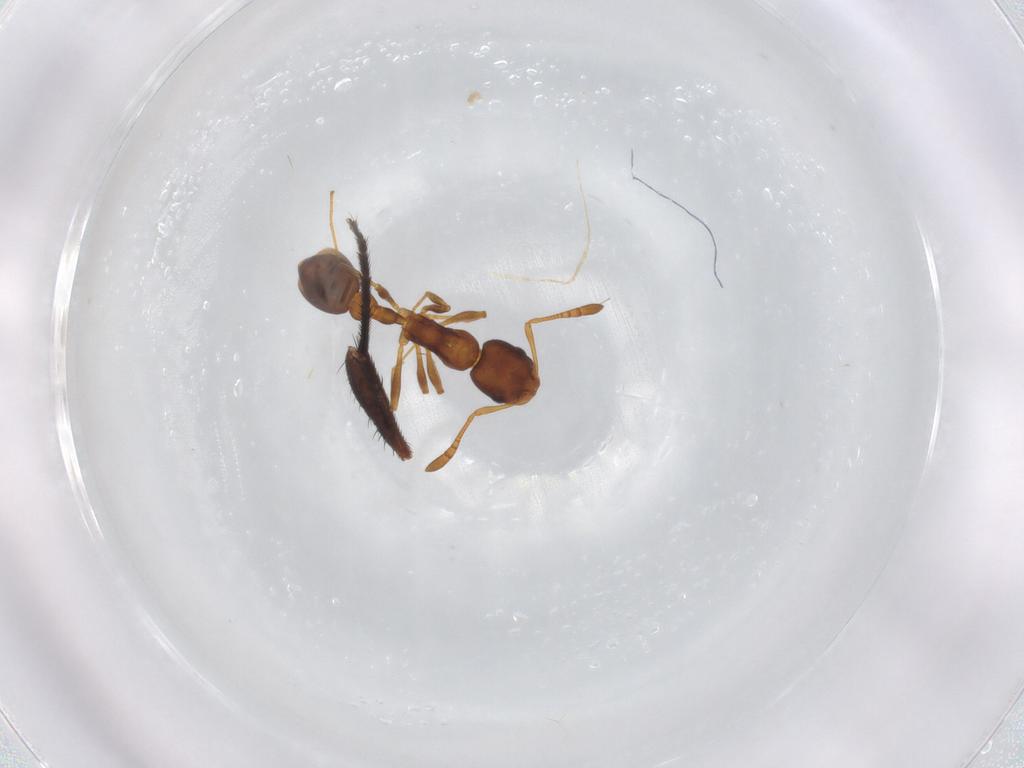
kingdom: Animalia
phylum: Arthropoda
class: Insecta
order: Hymenoptera
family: Formicidae
